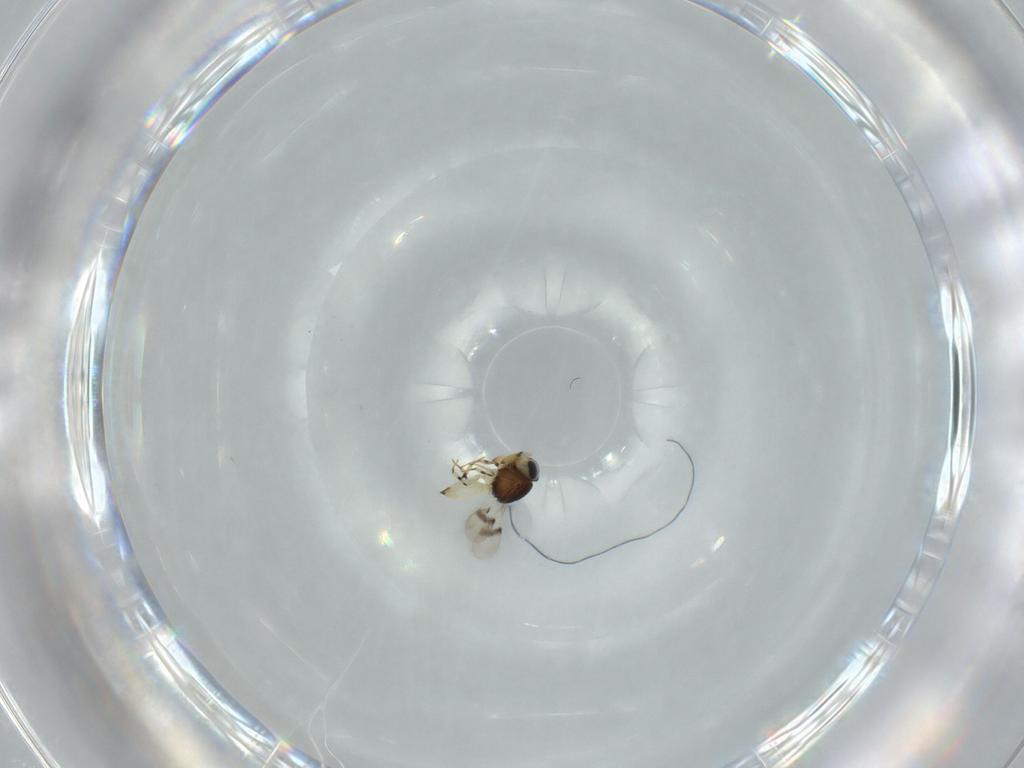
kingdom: Animalia
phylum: Arthropoda
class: Insecta
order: Hymenoptera
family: Scelionidae
